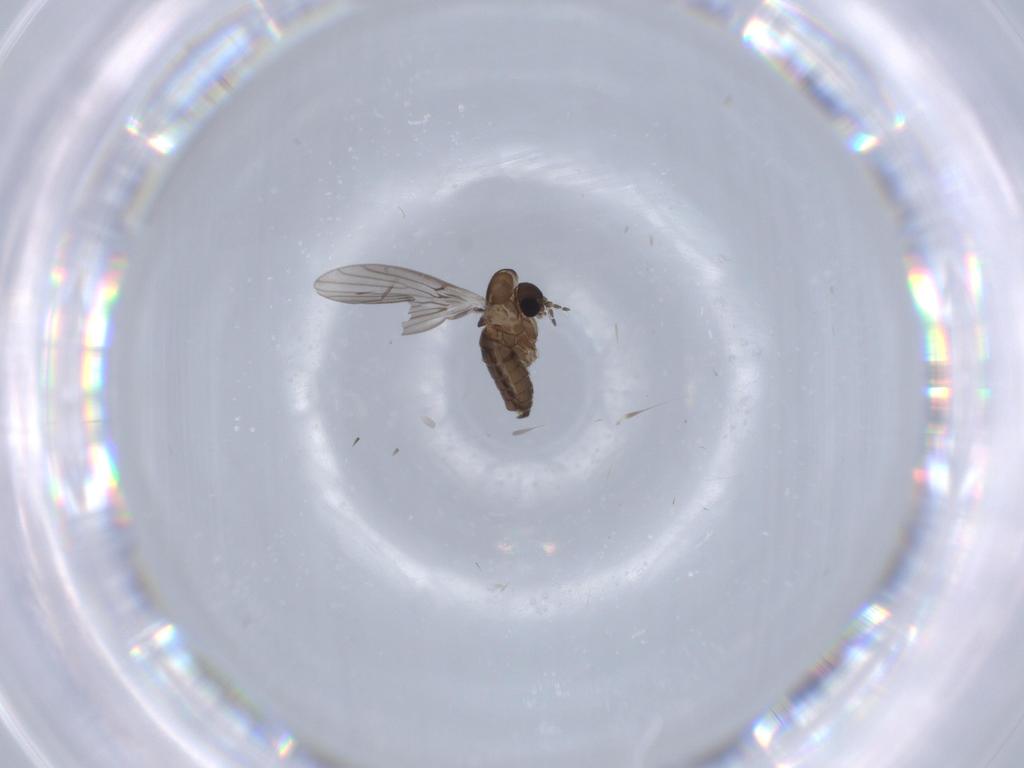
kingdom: Animalia
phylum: Arthropoda
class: Insecta
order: Diptera
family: Psychodidae
